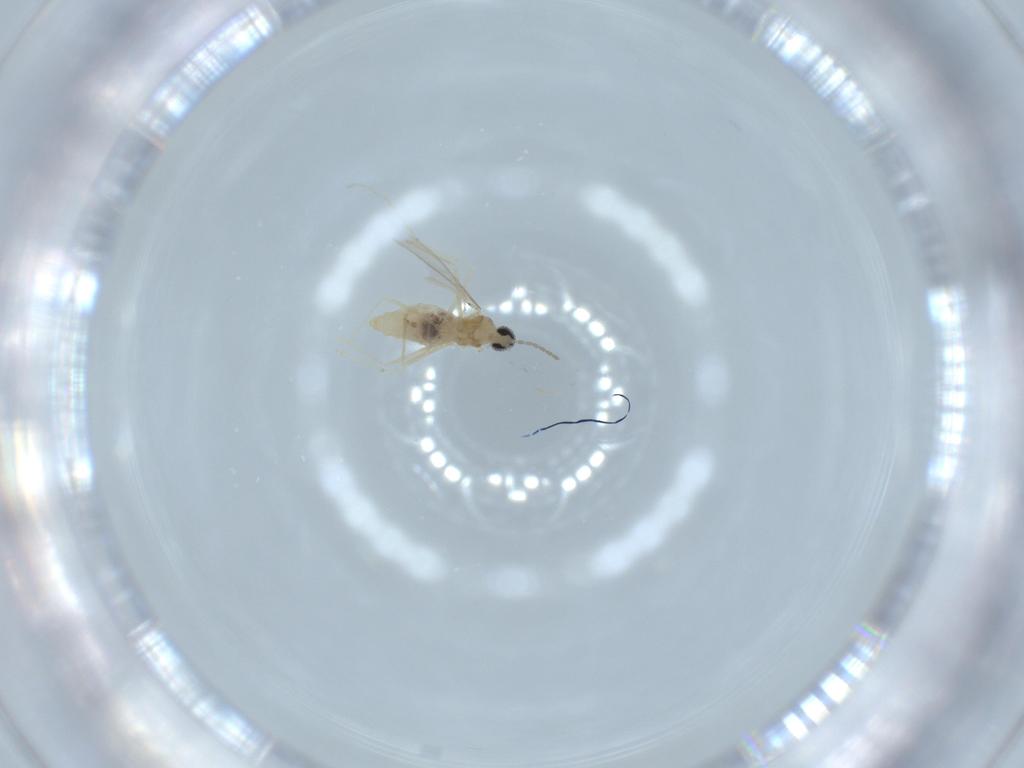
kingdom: Animalia
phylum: Arthropoda
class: Insecta
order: Diptera
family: Cecidomyiidae
